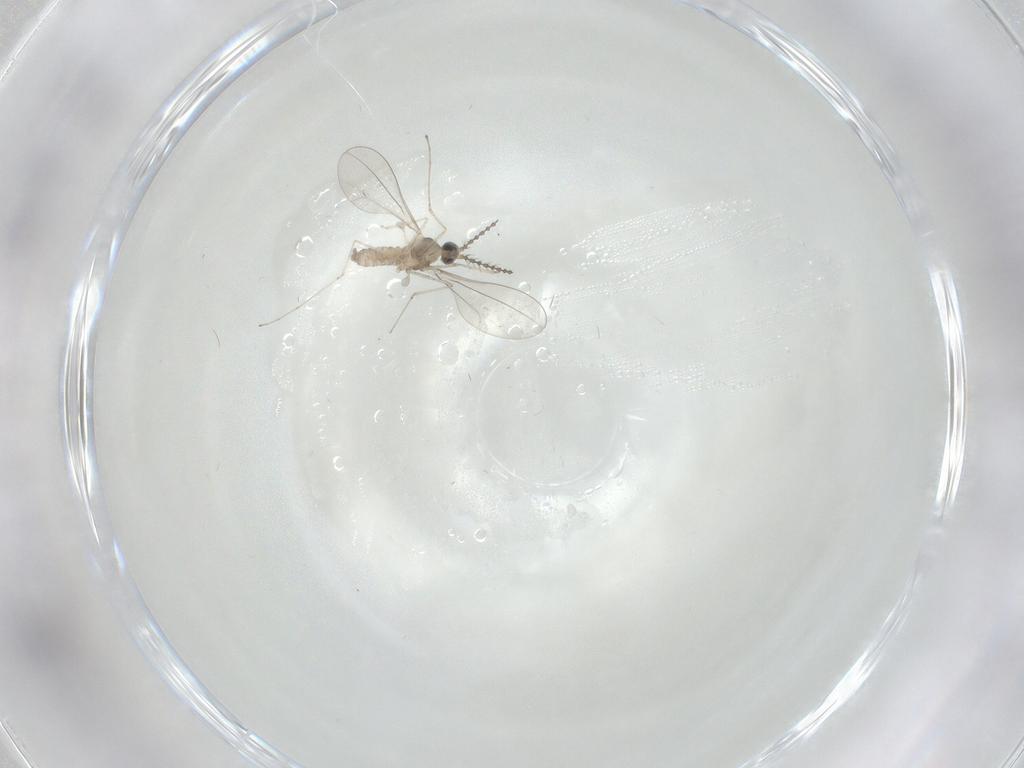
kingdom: Animalia
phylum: Arthropoda
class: Insecta
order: Diptera
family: Cecidomyiidae
